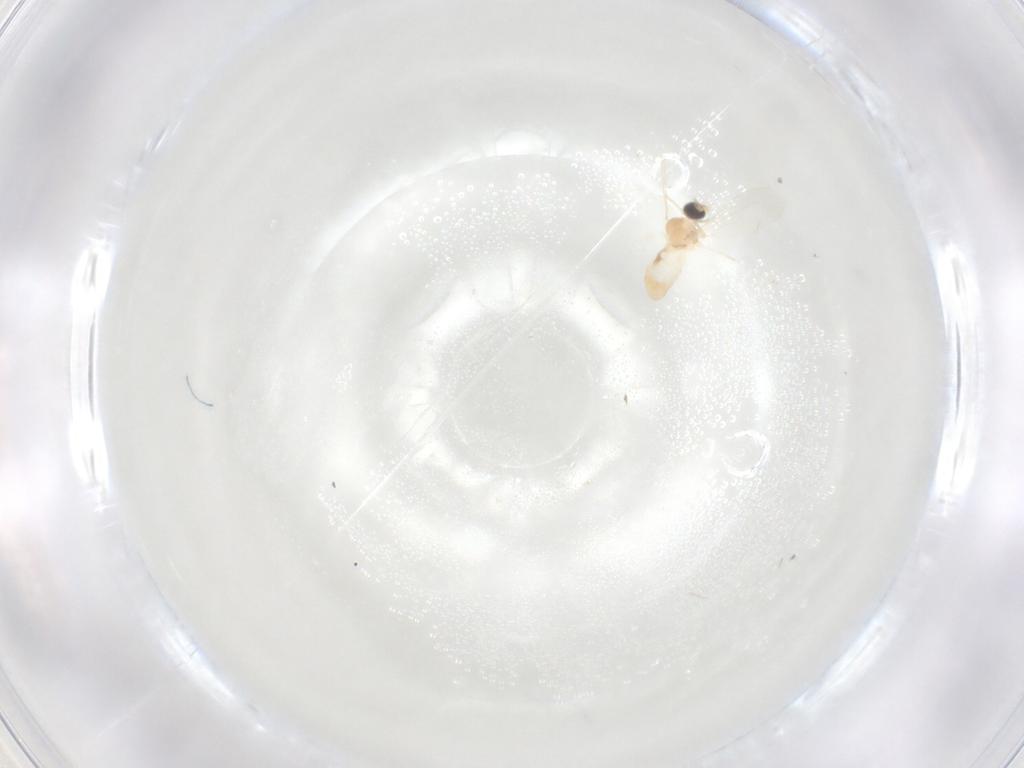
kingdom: Animalia
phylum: Arthropoda
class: Insecta
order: Diptera
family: Cecidomyiidae
